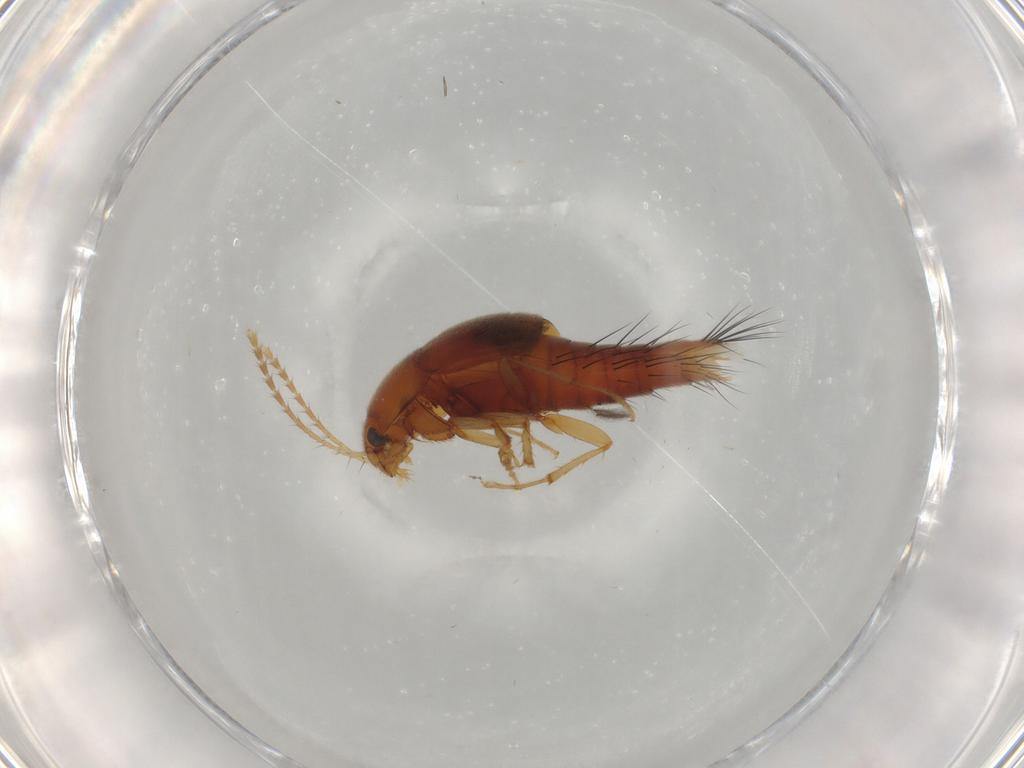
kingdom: Animalia
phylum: Arthropoda
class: Insecta
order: Coleoptera
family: Staphylinidae
